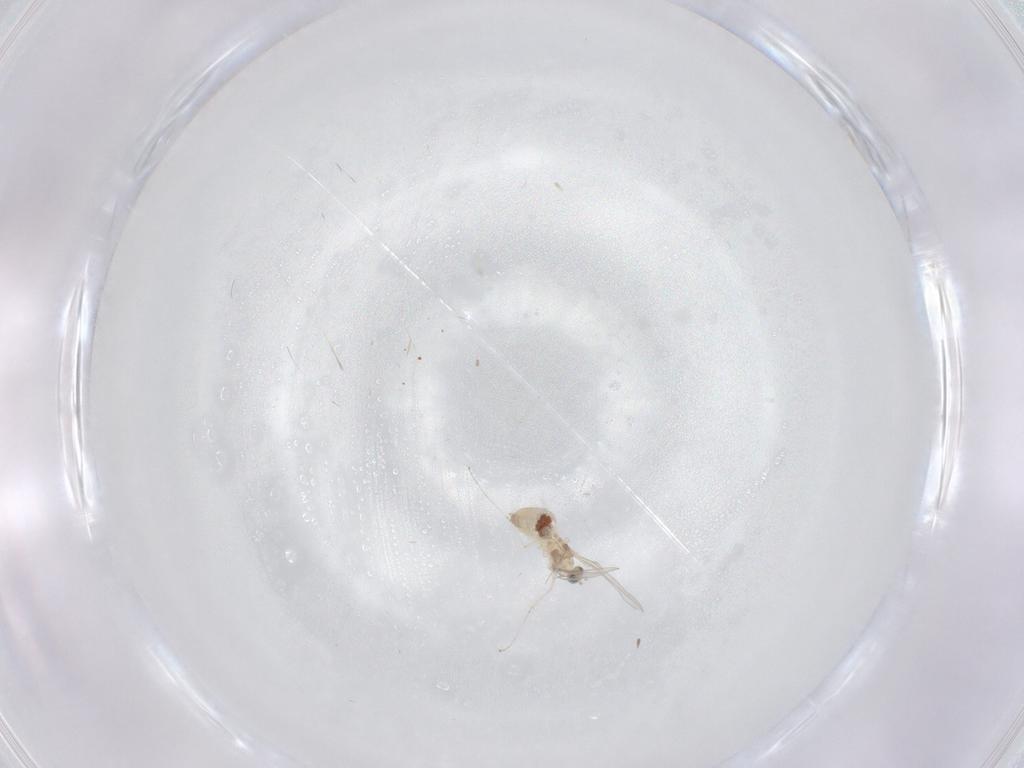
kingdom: Animalia
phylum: Arthropoda
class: Insecta
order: Diptera
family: Cecidomyiidae
